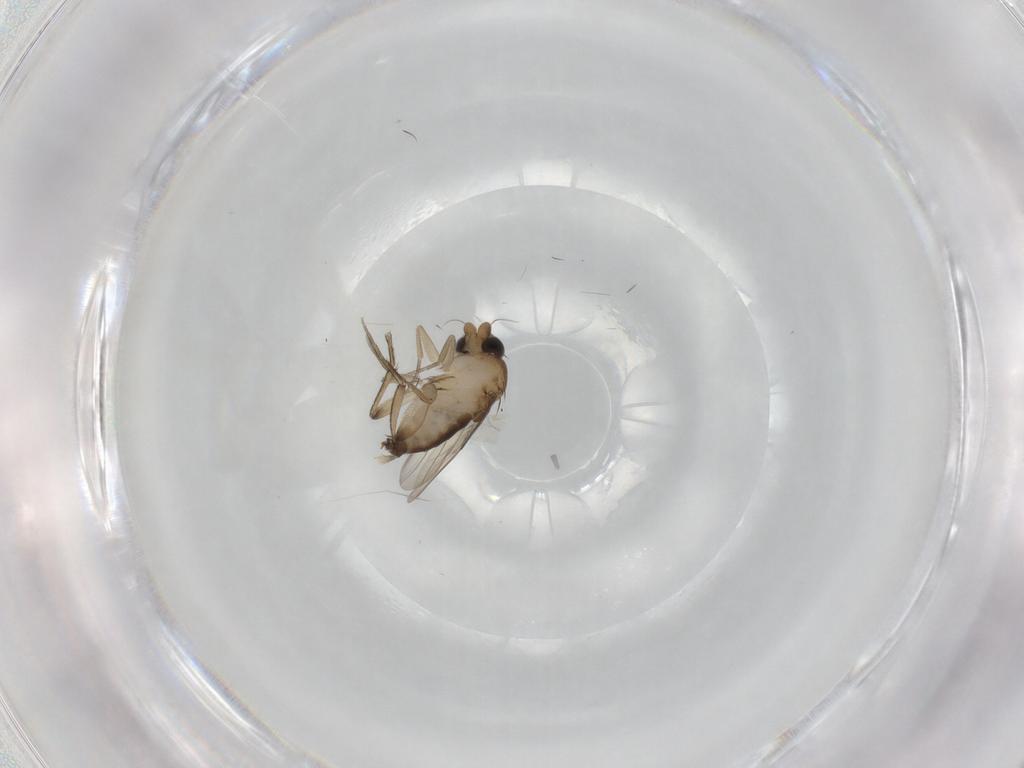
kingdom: Animalia
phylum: Arthropoda
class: Insecta
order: Diptera
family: Phoridae
